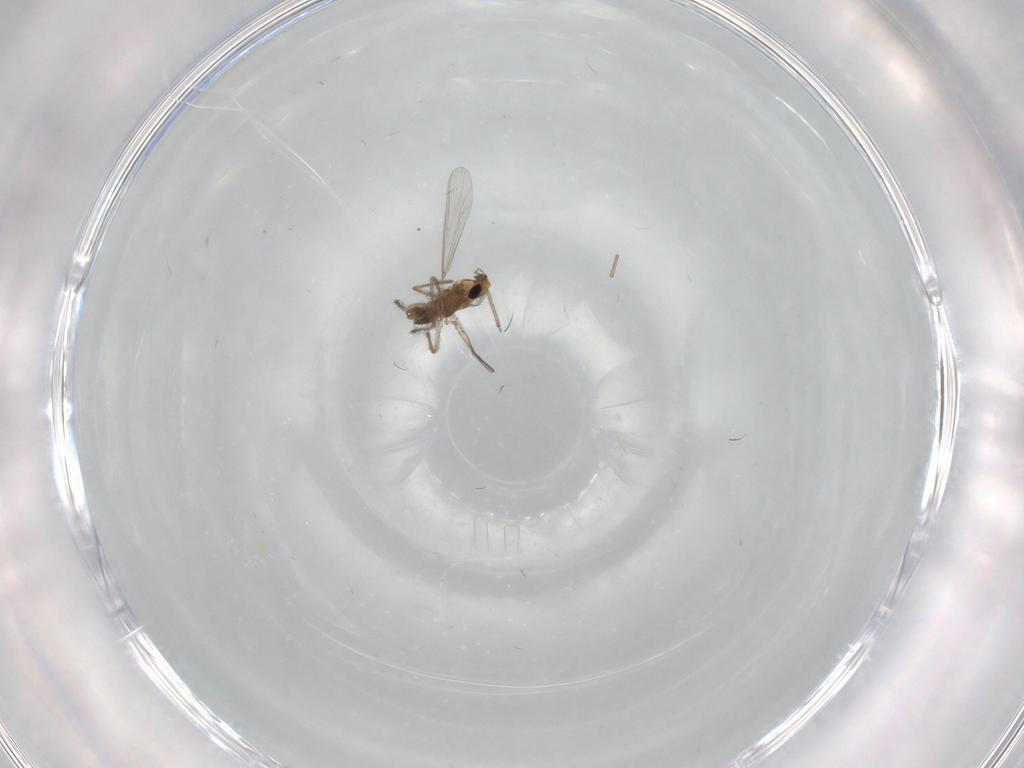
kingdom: Animalia
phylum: Arthropoda
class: Insecta
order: Diptera
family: Chironomidae
